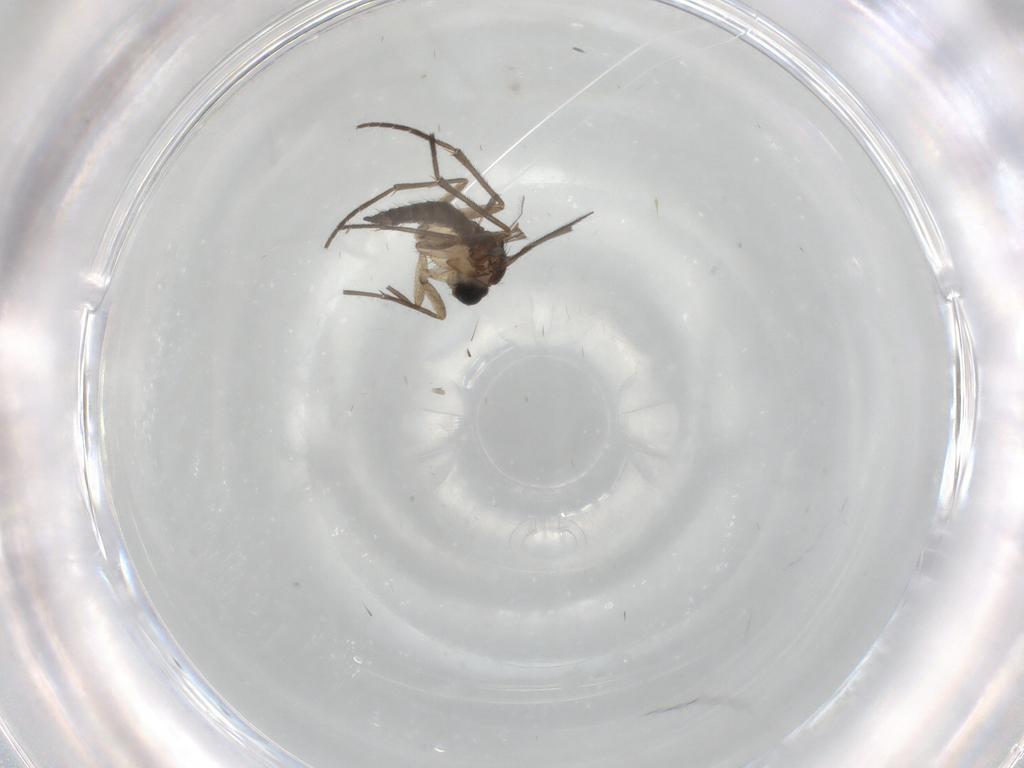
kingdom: Animalia
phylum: Arthropoda
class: Insecta
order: Diptera
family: Sciaridae
